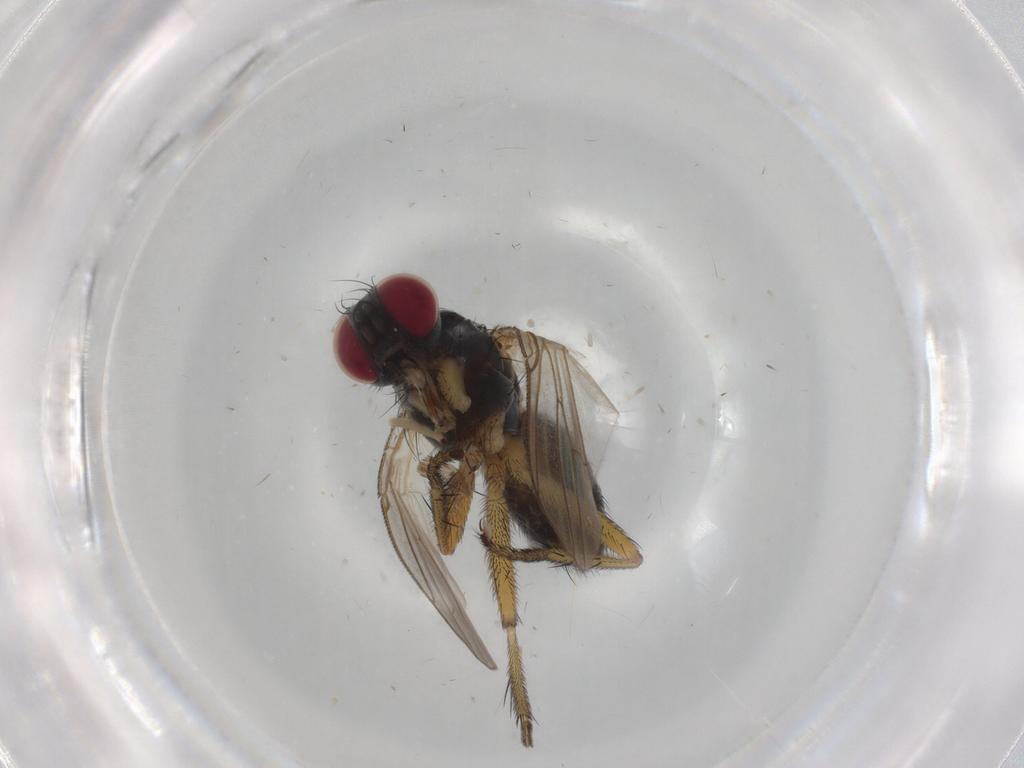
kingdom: Animalia
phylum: Arthropoda
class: Insecta
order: Diptera
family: Muscidae
